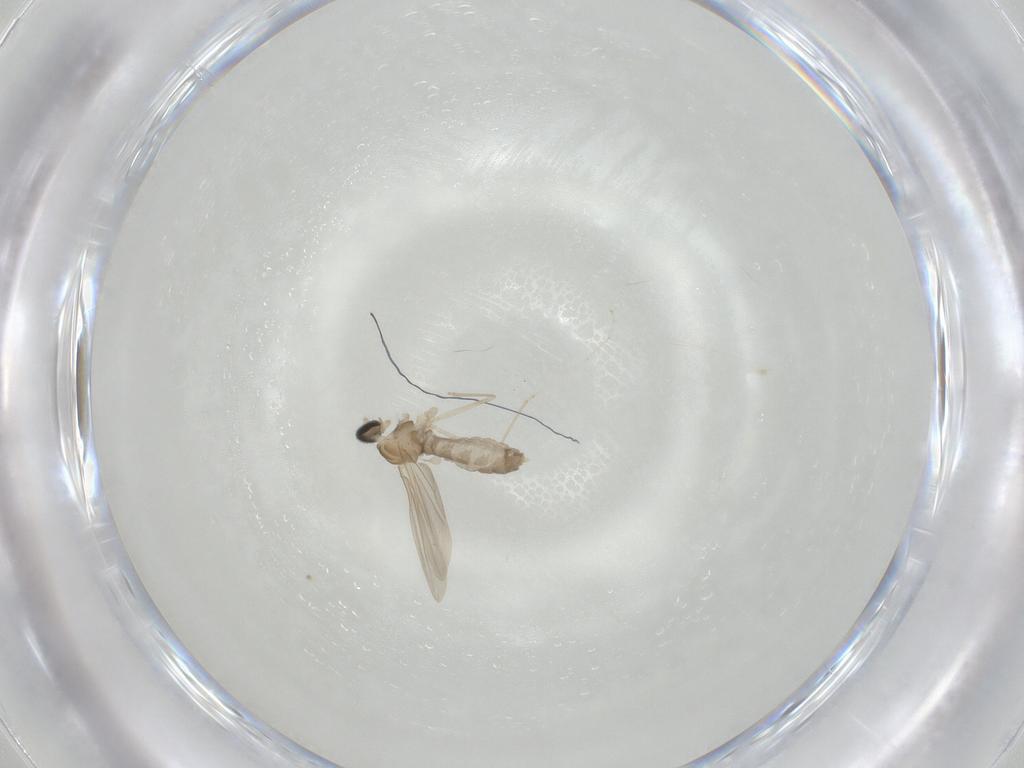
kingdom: Animalia
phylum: Arthropoda
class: Insecta
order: Diptera
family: Cecidomyiidae
